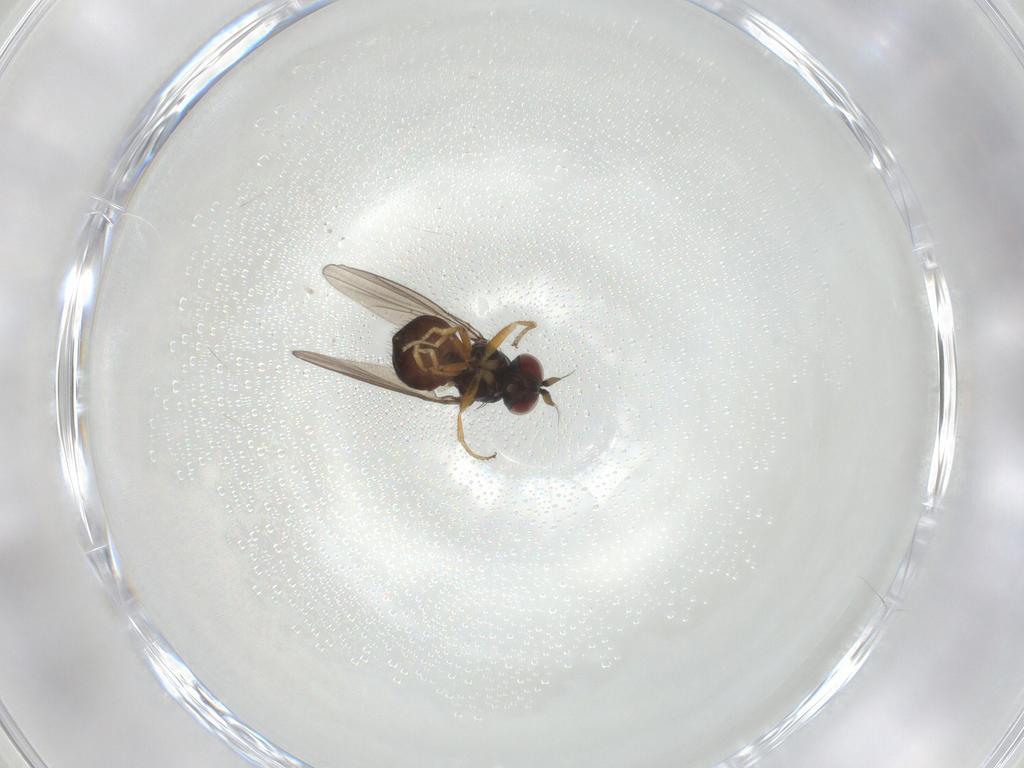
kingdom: Animalia
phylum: Arthropoda
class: Insecta
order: Diptera
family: Ephydridae
